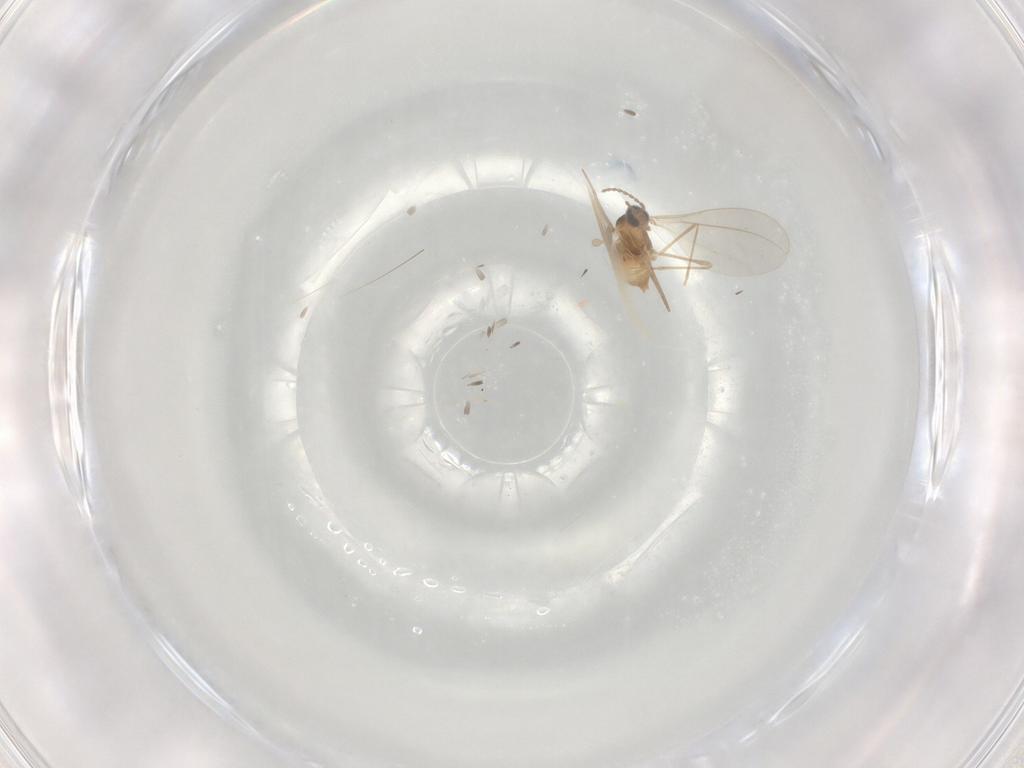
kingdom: Animalia
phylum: Arthropoda
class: Insecta
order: Diptera
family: Cecidomyiidae
